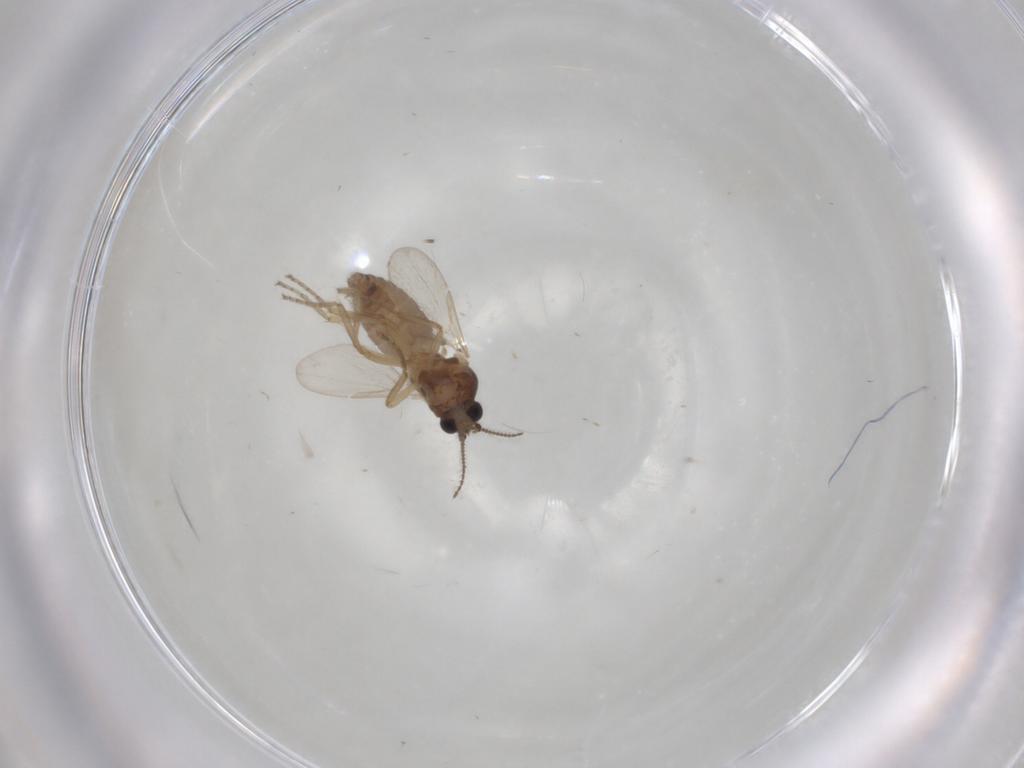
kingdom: Animalia
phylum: Arthropoda
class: Insecta
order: Diptera
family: Ceratopogonidae
